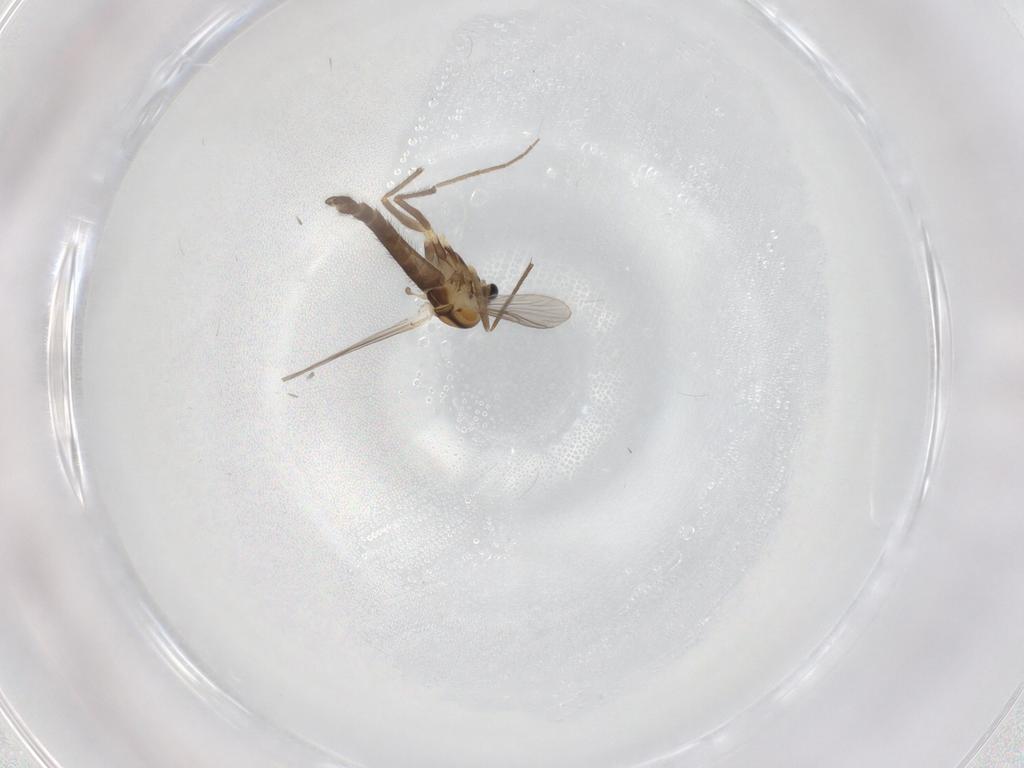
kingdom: Animalia
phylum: Arthropoda
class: Insecta
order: Diptera
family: Chironomidae
